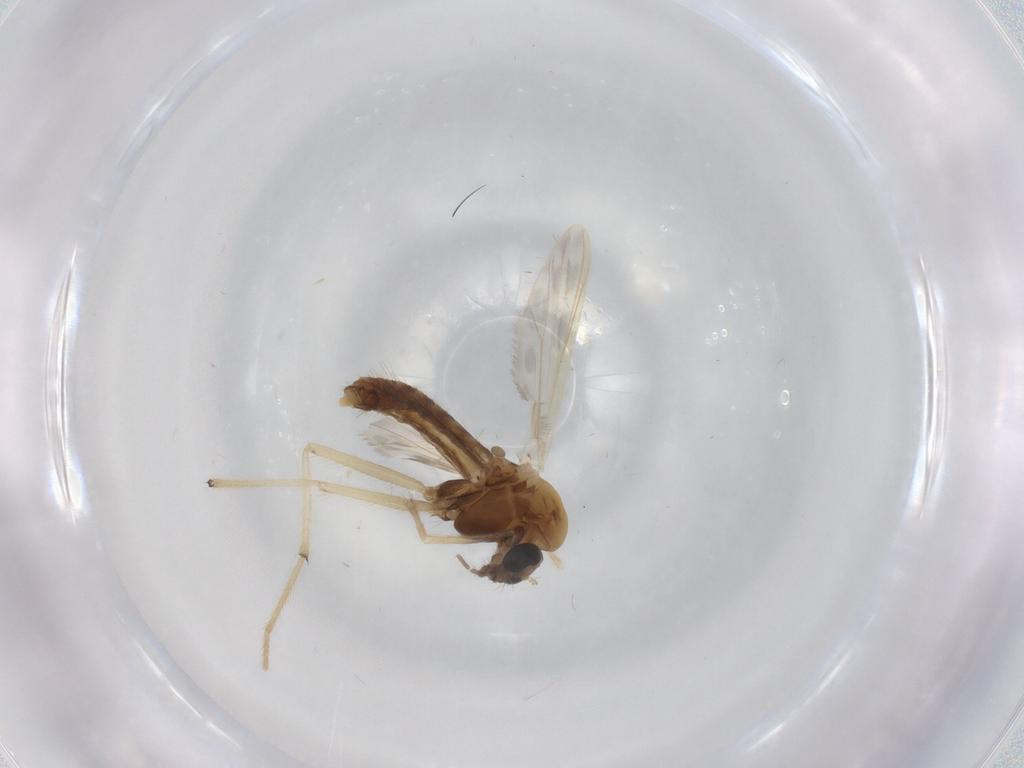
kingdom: Animalia
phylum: Arthropoda
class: Insecta
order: Diptera
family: Chironomidae
